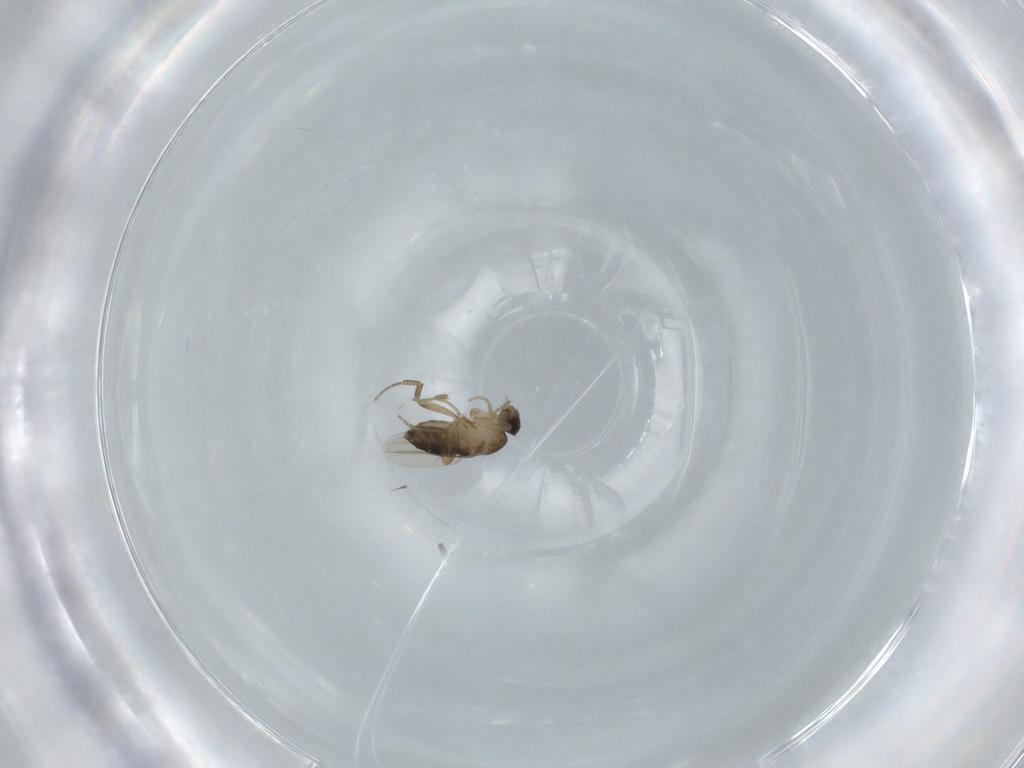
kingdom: Animalia
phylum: Arthropoda
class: Insecta
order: Diptera
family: Phoridae
